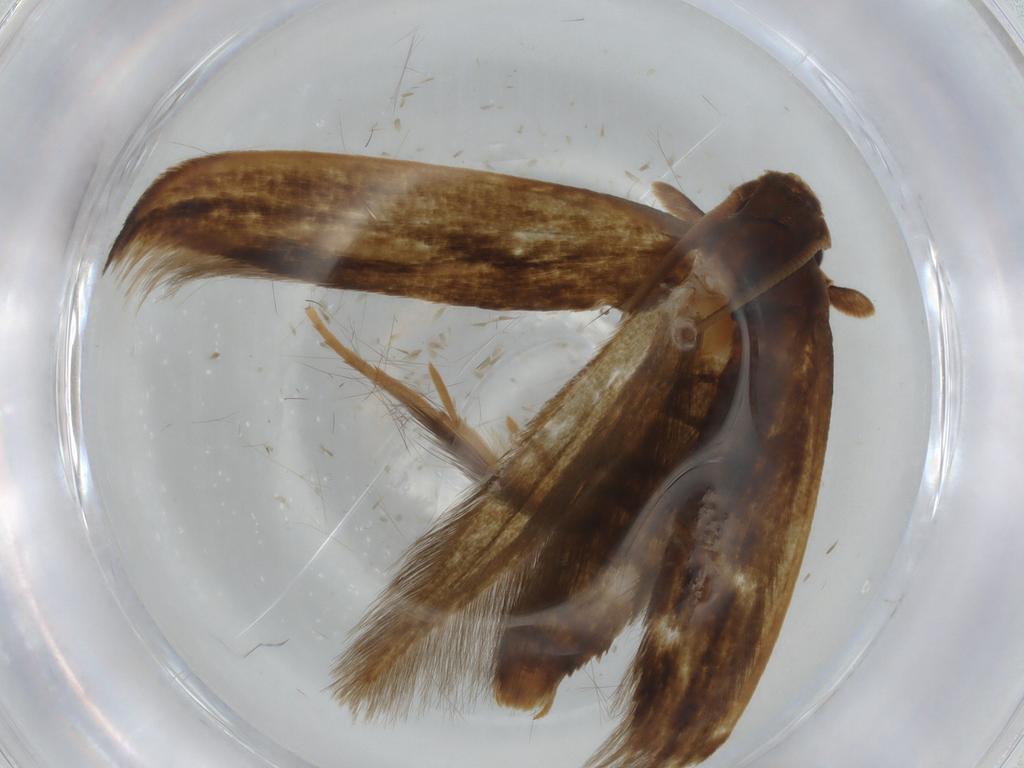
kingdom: Animalia
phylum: Arthropoda
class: Insecta
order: Lepidoptera
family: Tineidae
